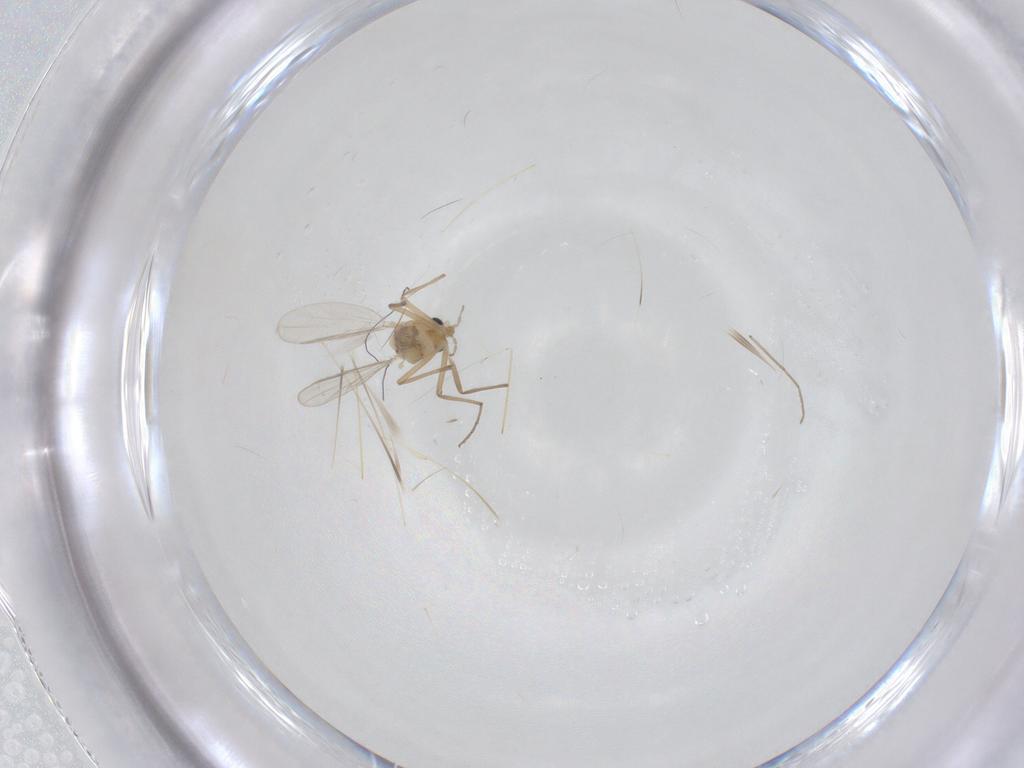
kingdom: Animalia
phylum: Arthropoda
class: Insecta
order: Diptera
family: Chironomidae
